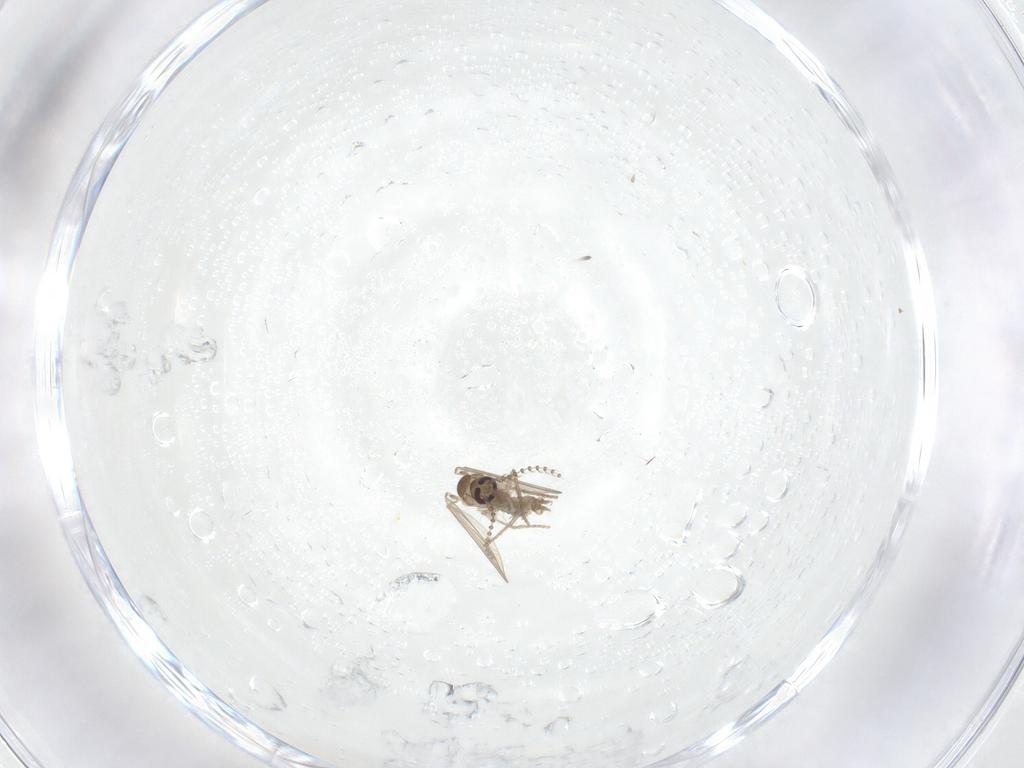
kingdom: Animalia
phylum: Arthropoda
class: Insecta
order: Diptera
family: Psychodidae
